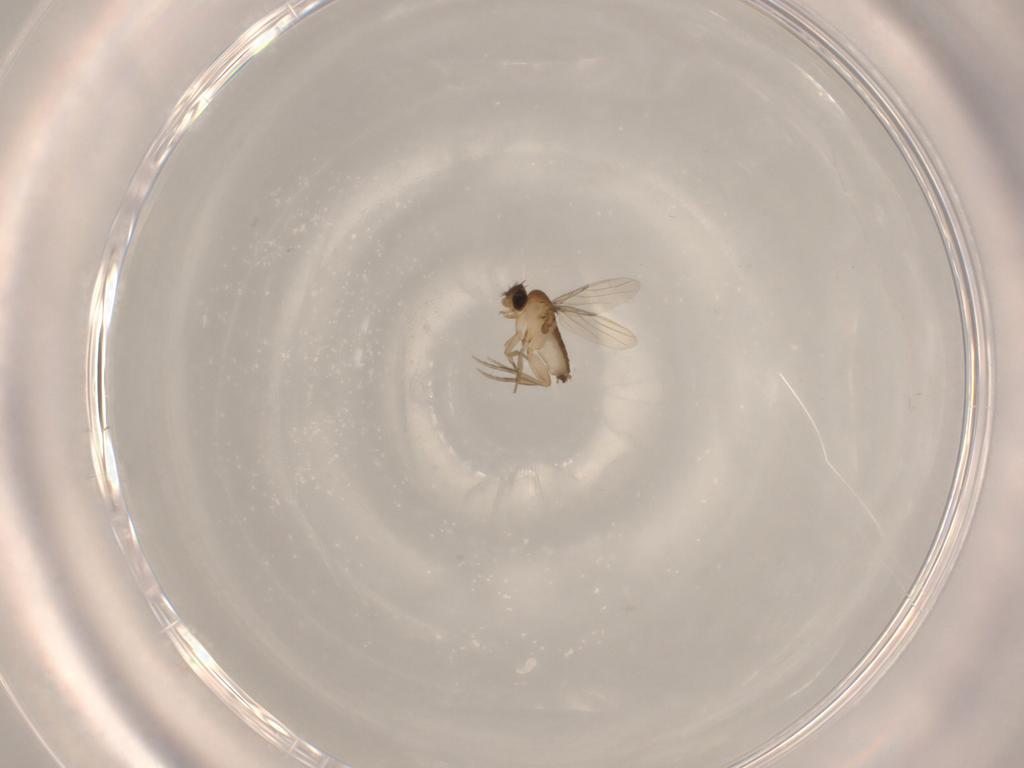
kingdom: Animalia
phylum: Arthropoda
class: Insecta
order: Diptera
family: Phoridae
